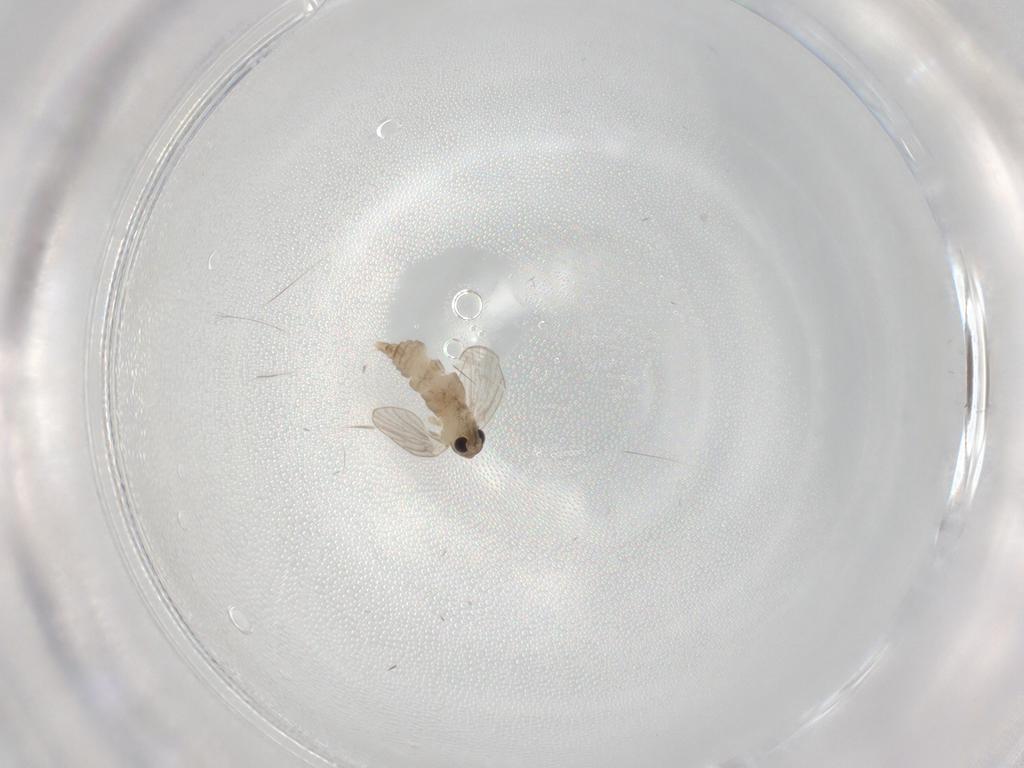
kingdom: Animalia
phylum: Arthropoda
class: Insecta
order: Diptera
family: Psychodidae
